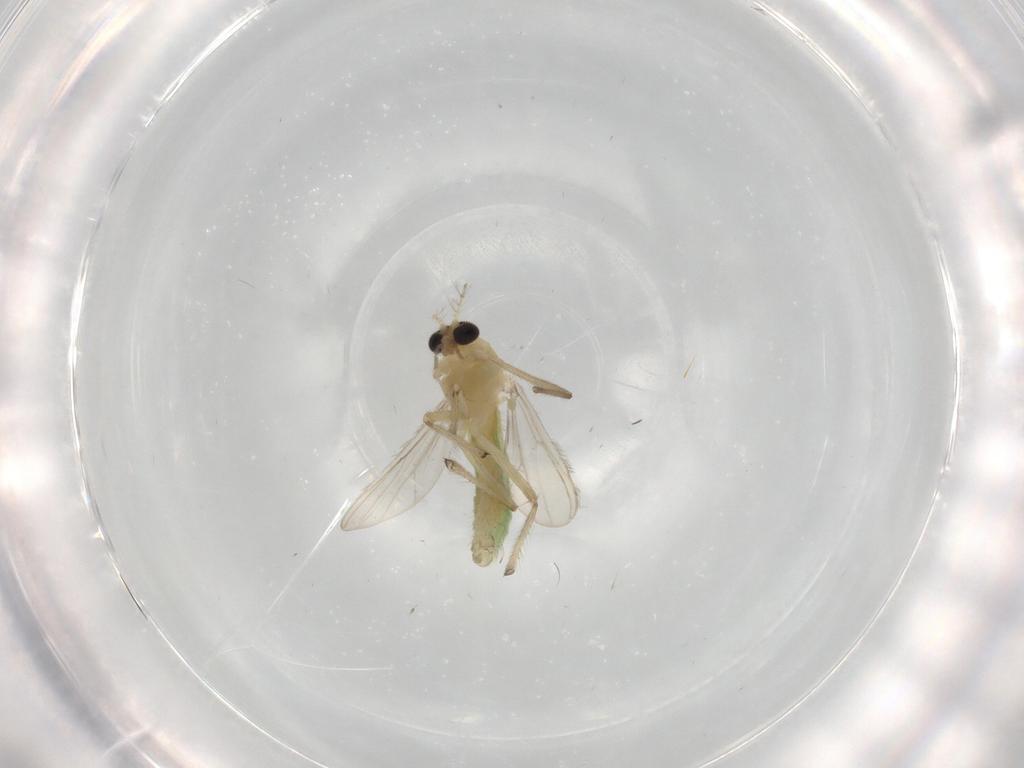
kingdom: Animalia
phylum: Arthropoda
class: Insecta
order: Diptera
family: Chironomidae
